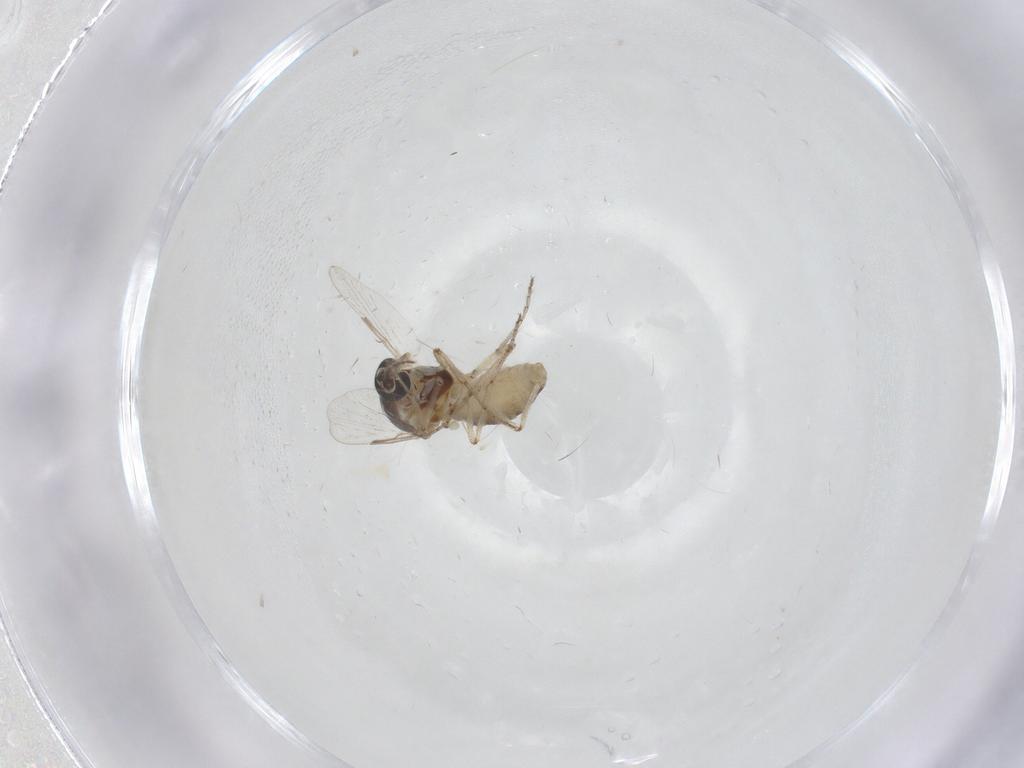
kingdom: Animalia
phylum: Arthropoda
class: Insecta
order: Diptera
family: Ceratopogonidae
